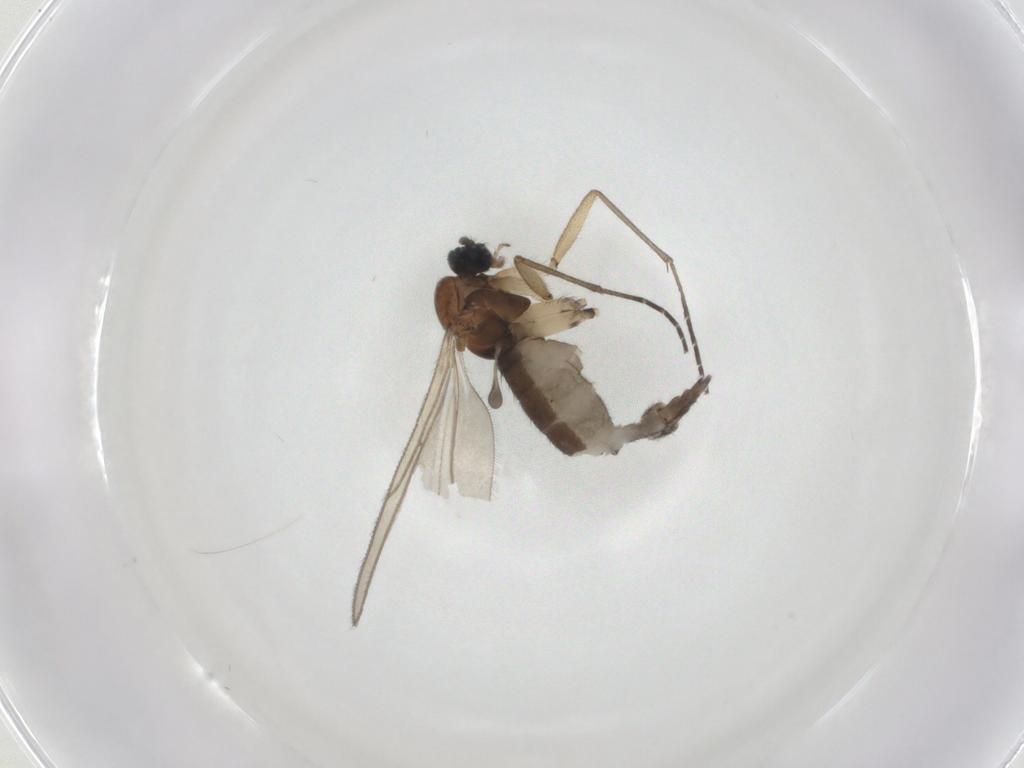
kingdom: Animalia
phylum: Arthropoda
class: Insecta
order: Diptera
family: Sciaridae
